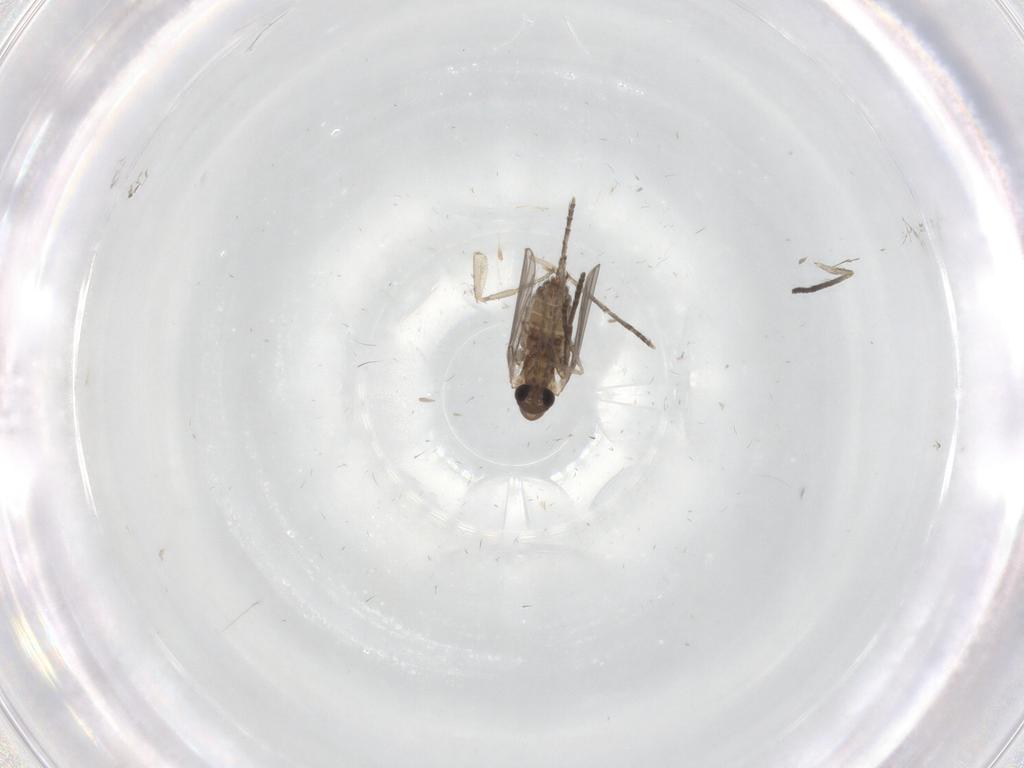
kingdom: Animalia
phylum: Arthropoda
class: Insecta
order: Diptera
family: Phoridae
